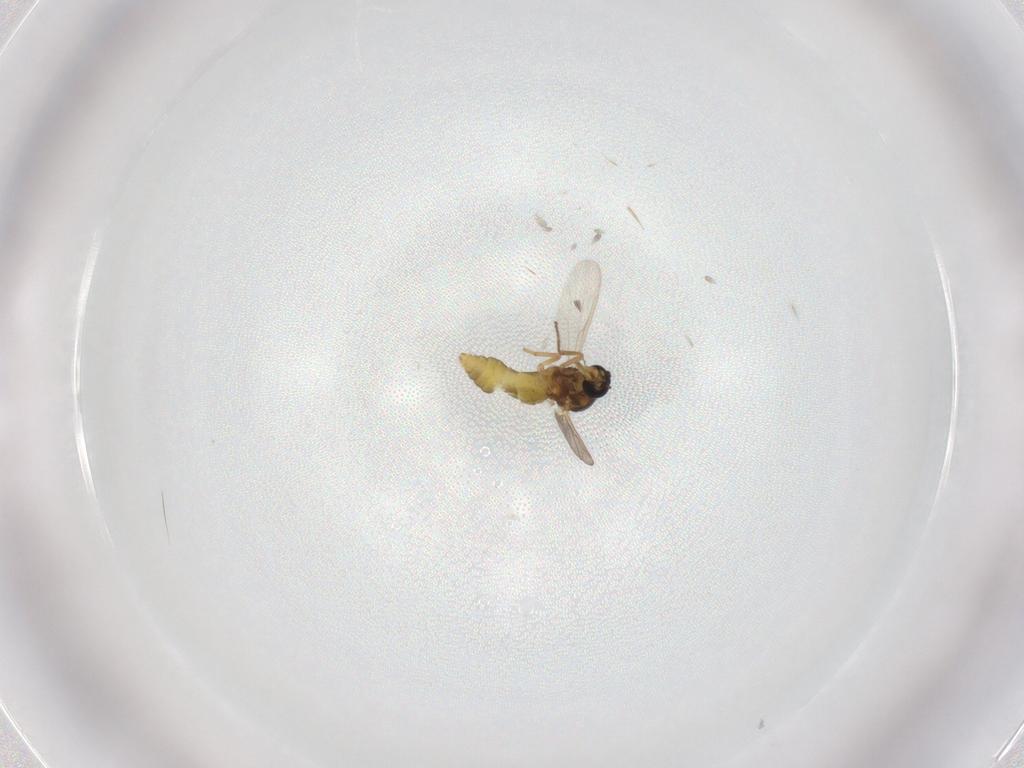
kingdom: Animalia
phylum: Arthropoda
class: Insecta
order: Diptera
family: Ceratopogonidae
